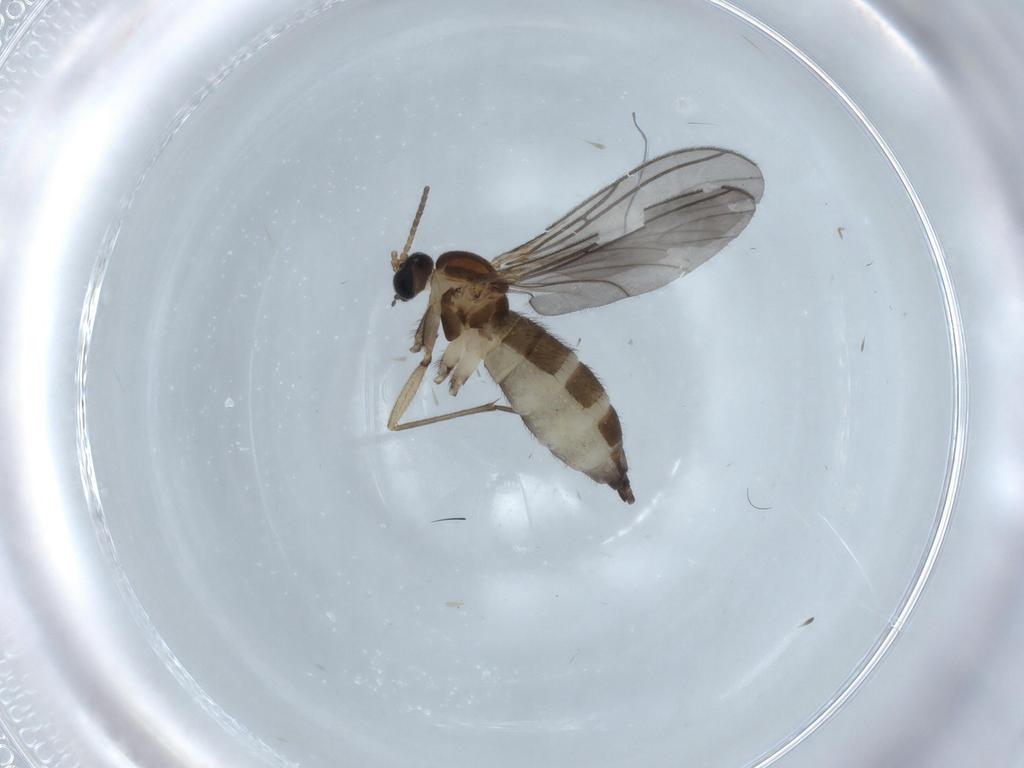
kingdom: Animalia
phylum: Arthropoda
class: Insecta
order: Diptera
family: Sciaridae
